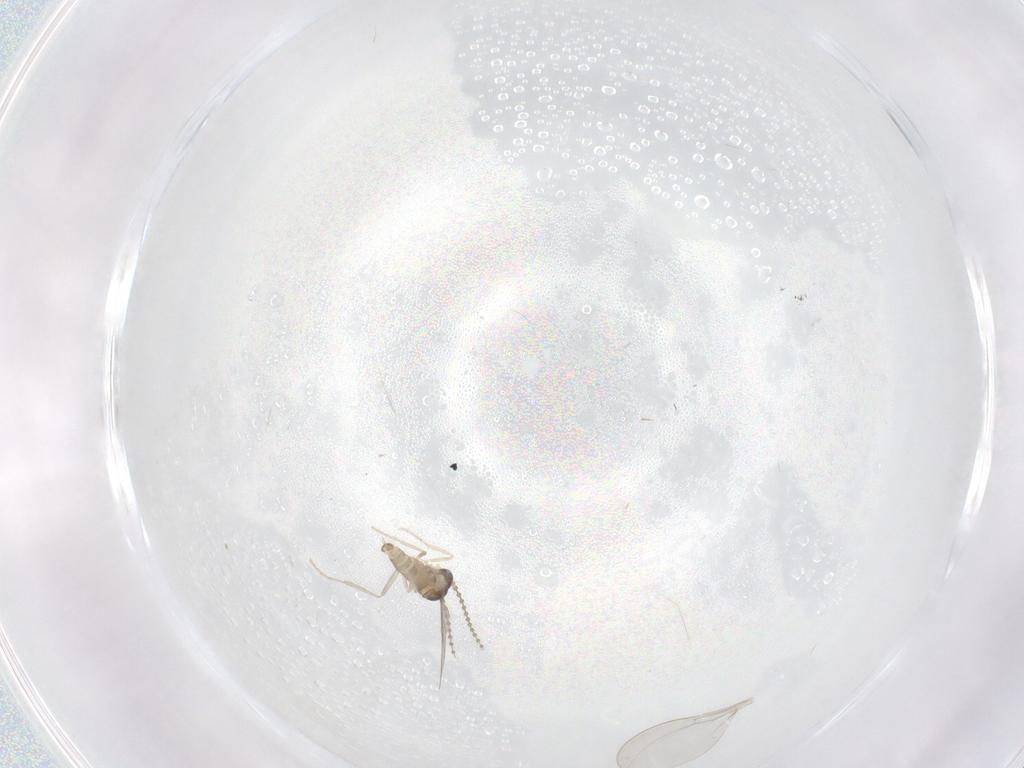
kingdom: Animalia
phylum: Arthropoda
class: Insecta
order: Diptera
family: Cecidomyiidae
